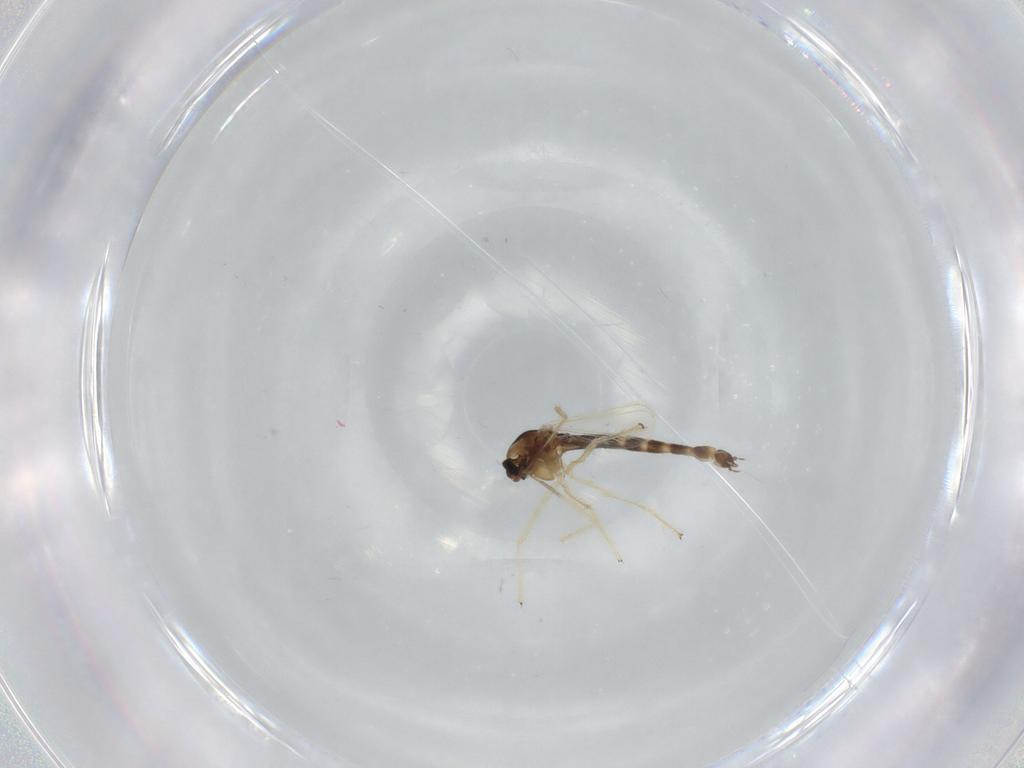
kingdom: Animalia
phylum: Arthropoda
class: Insecta
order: Diptera
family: Chironomidae
